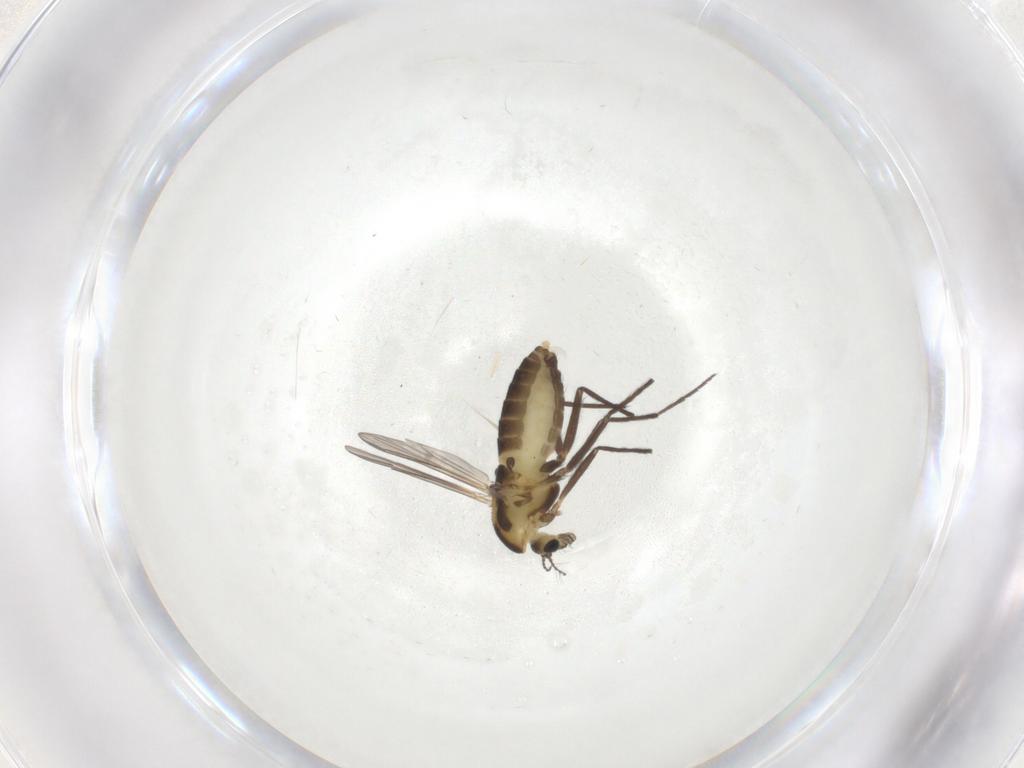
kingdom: Animalia
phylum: Arthropoda
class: Insecta
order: Diptera
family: Chironomidae
